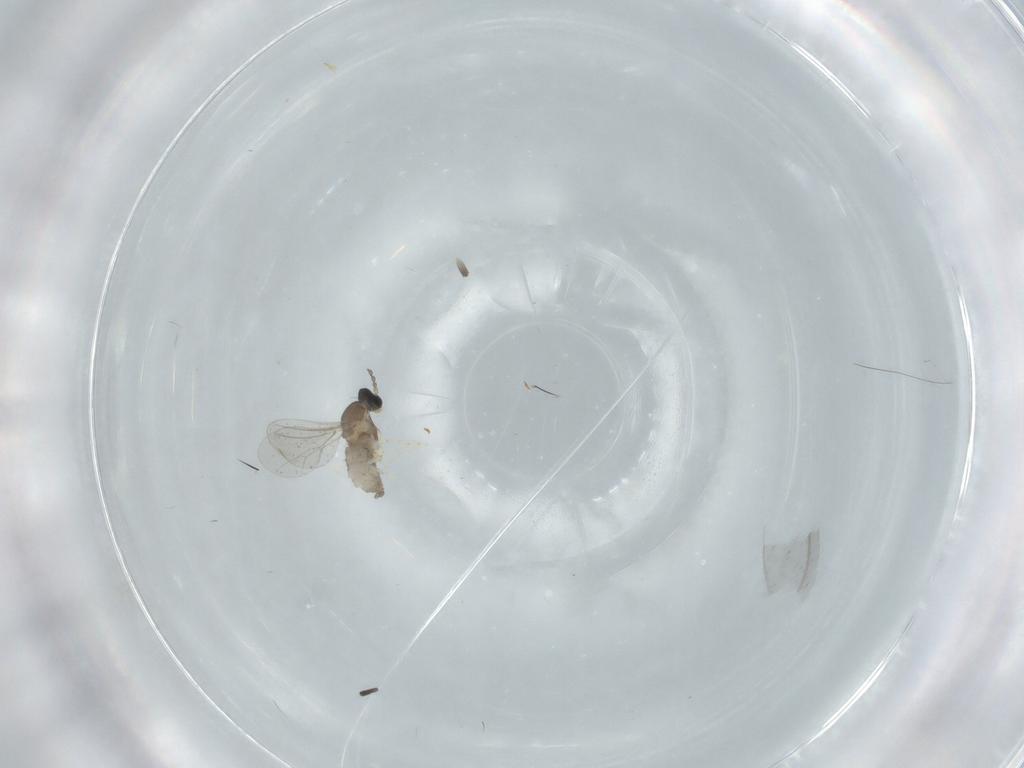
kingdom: Animalia
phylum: Arthropoda
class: Insecta
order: Diptera
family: Cecidomyiidae
